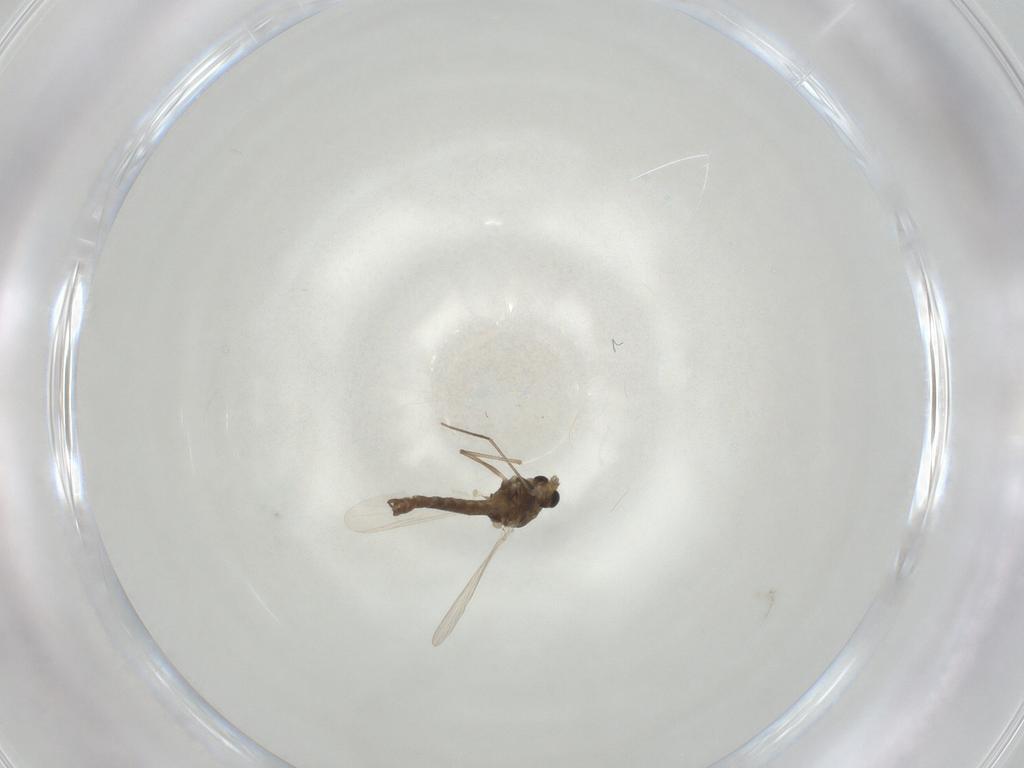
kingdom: Animalia
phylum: Arthropoda
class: Insecta
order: Diptera
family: Chironomidae
